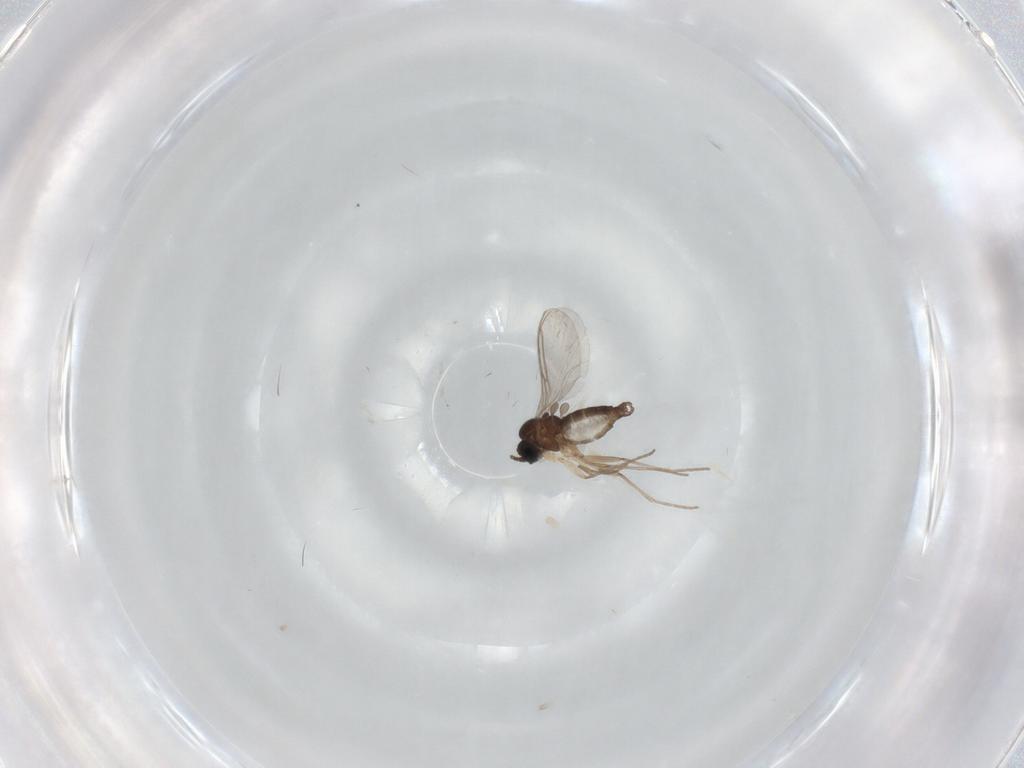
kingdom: Animalia
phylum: Arthropoda
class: Insecta
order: Diptera
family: Sciaridae
